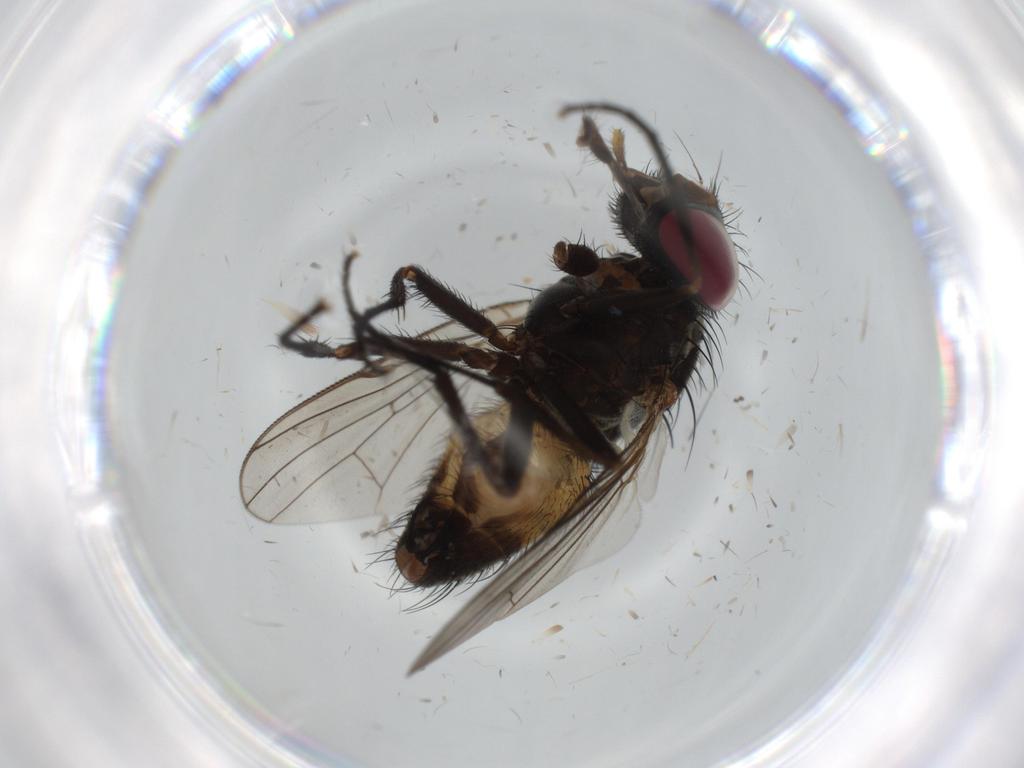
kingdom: Animalia
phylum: Arthropoda
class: Insecta
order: Diptera
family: Fannia
